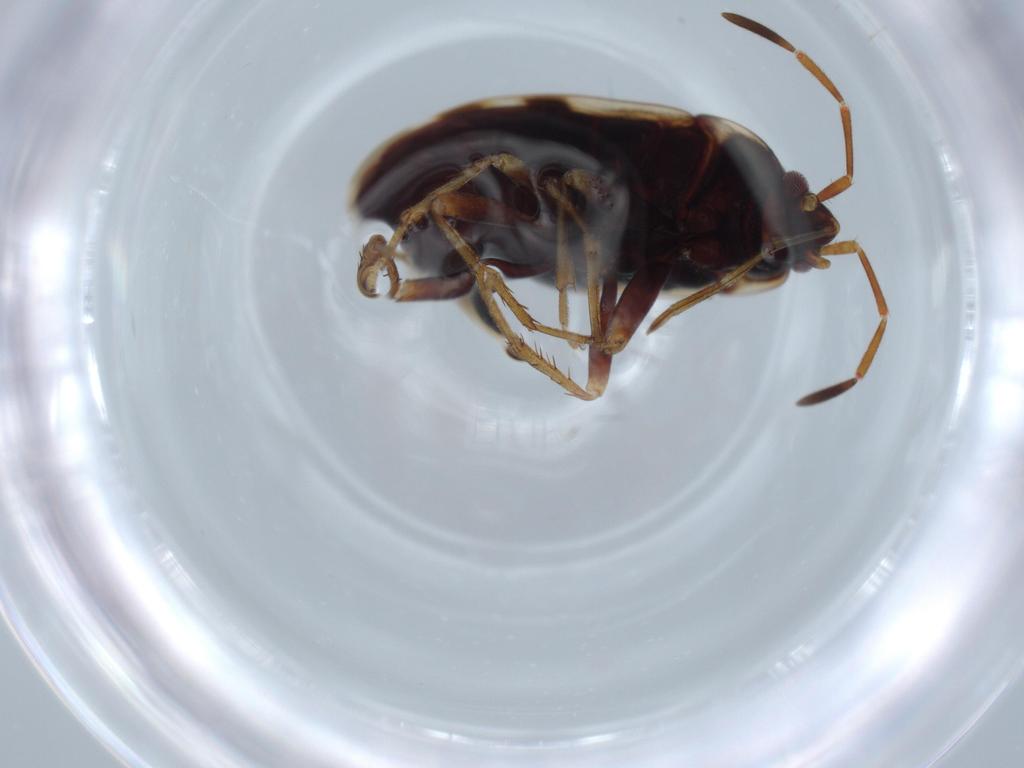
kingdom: Animalia
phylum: Arthropoda
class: Insecta
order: Hemiptera
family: Rhyparochromidae
